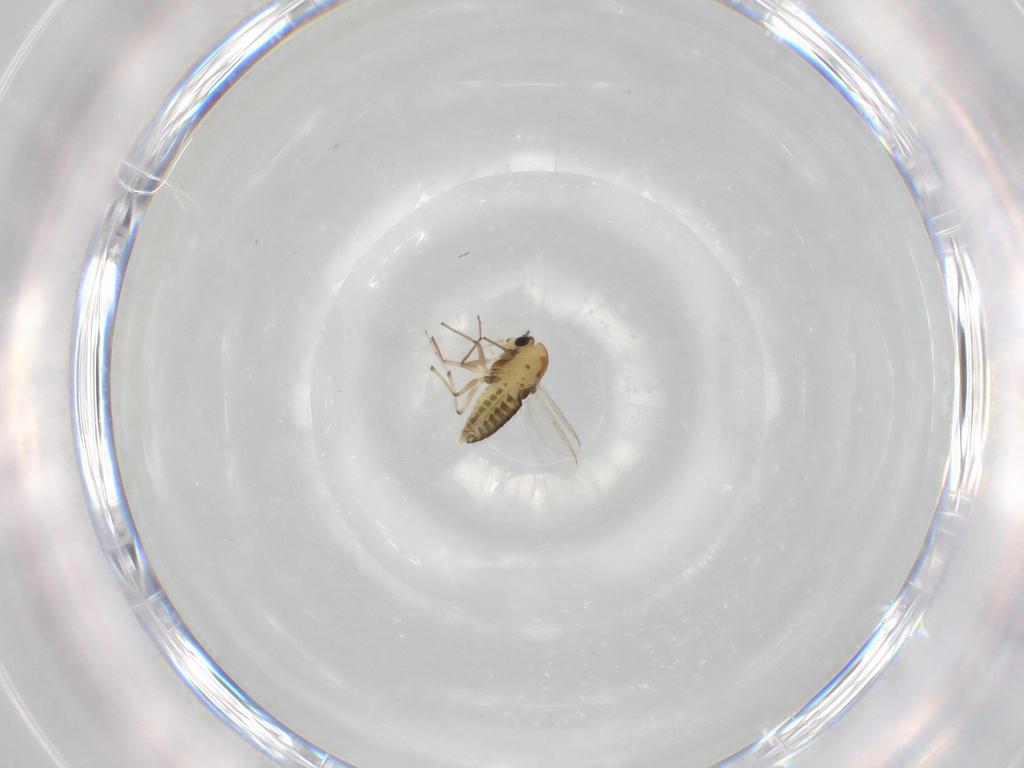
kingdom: Animalia
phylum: Arthropoda
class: Insecta
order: Diptera
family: Chironomidae
